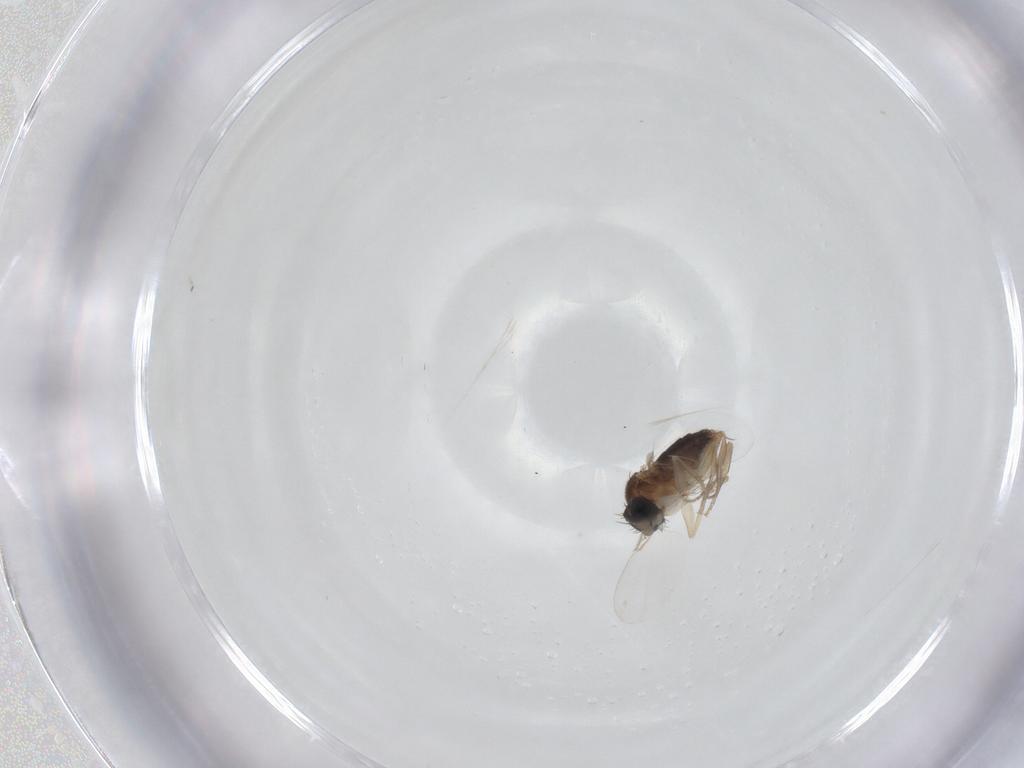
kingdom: Animalia
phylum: Arthropoda
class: Insecta
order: Diptera
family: Phoridae
